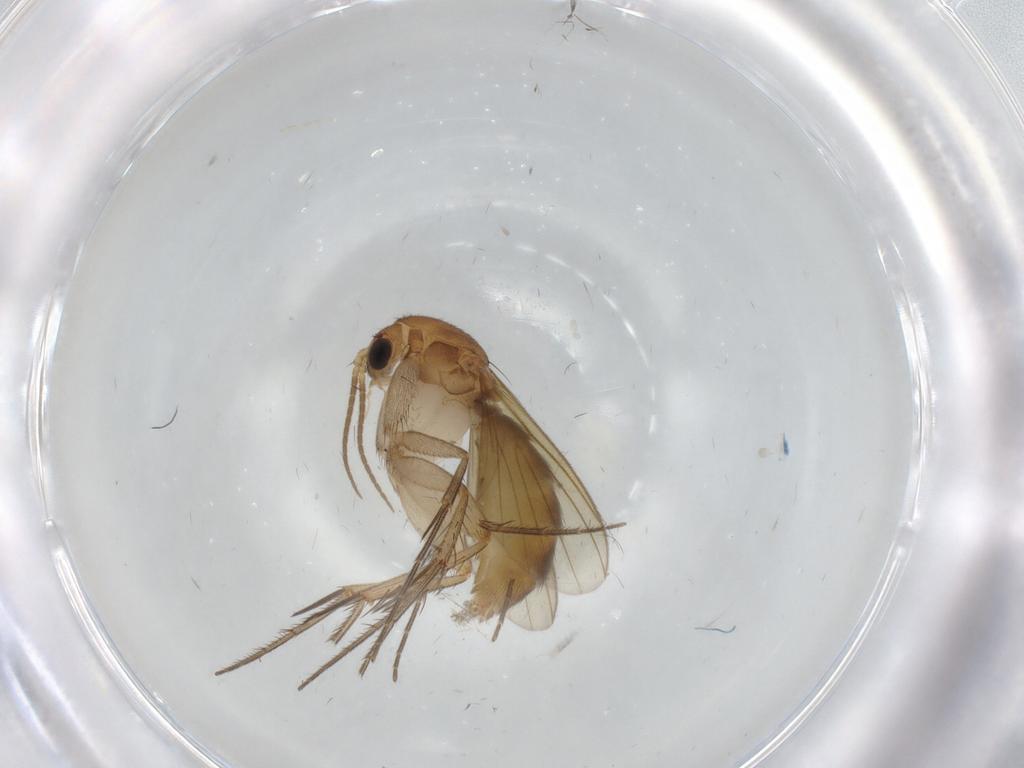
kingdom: Animalia
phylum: Arthropoda
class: Insecta
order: Diptera
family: Mycetophilidae
